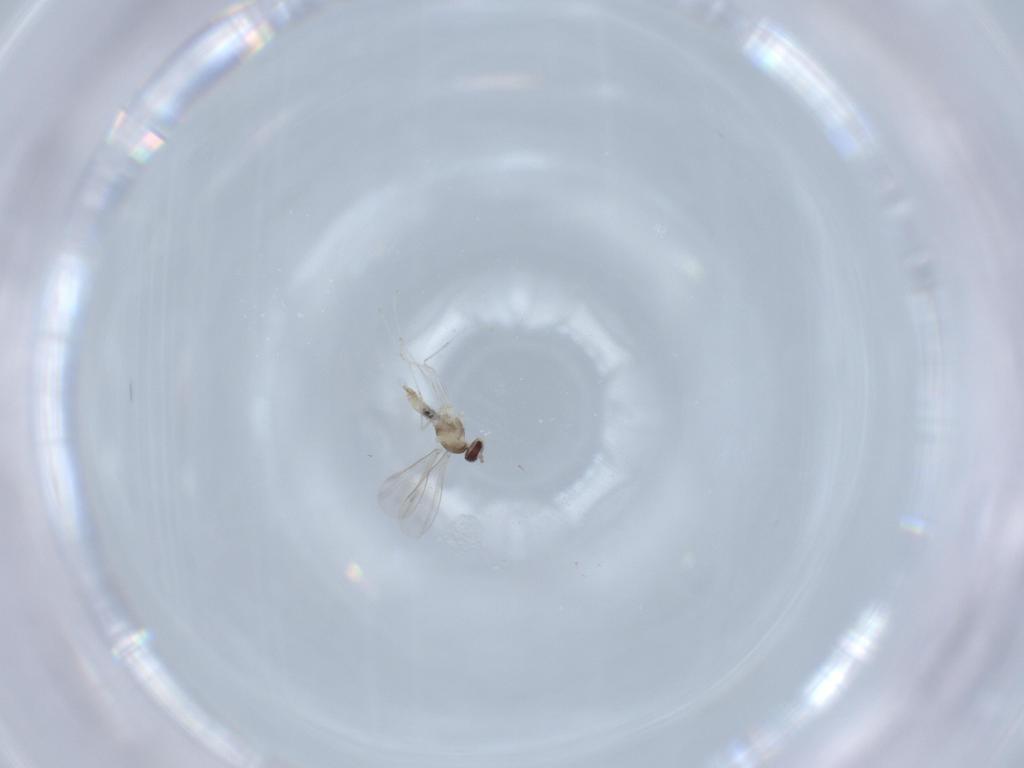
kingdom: Animalia
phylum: Arthropoda
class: Insecta
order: Diptera
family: Cecidomyiidae
